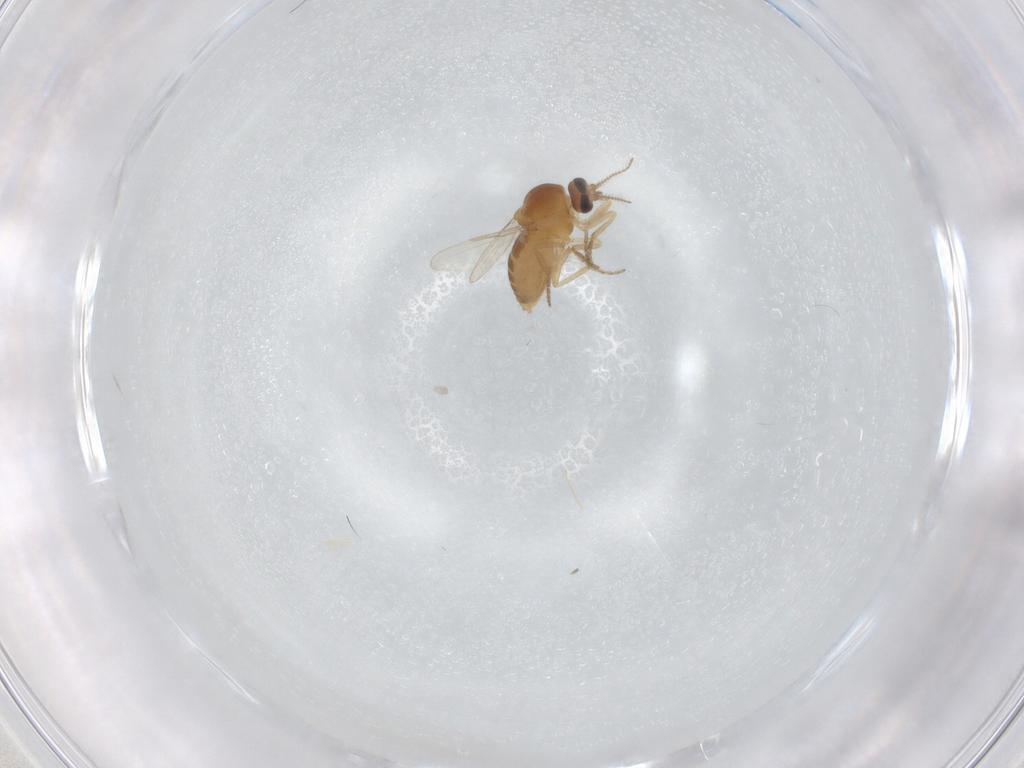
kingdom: Animalia
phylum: Arthropoda
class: Insecta
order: Diptera
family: Ceratopogonidae
